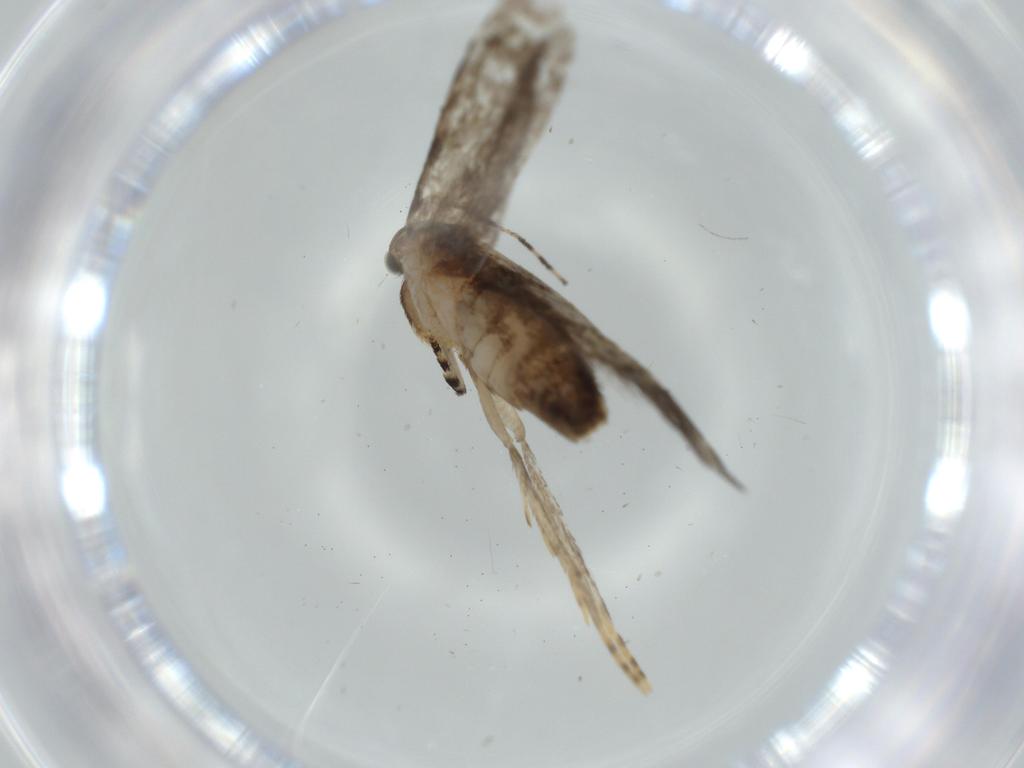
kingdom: Animalia
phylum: Arthropoda
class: Insecta
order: Lepidoptera
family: Tineidae
